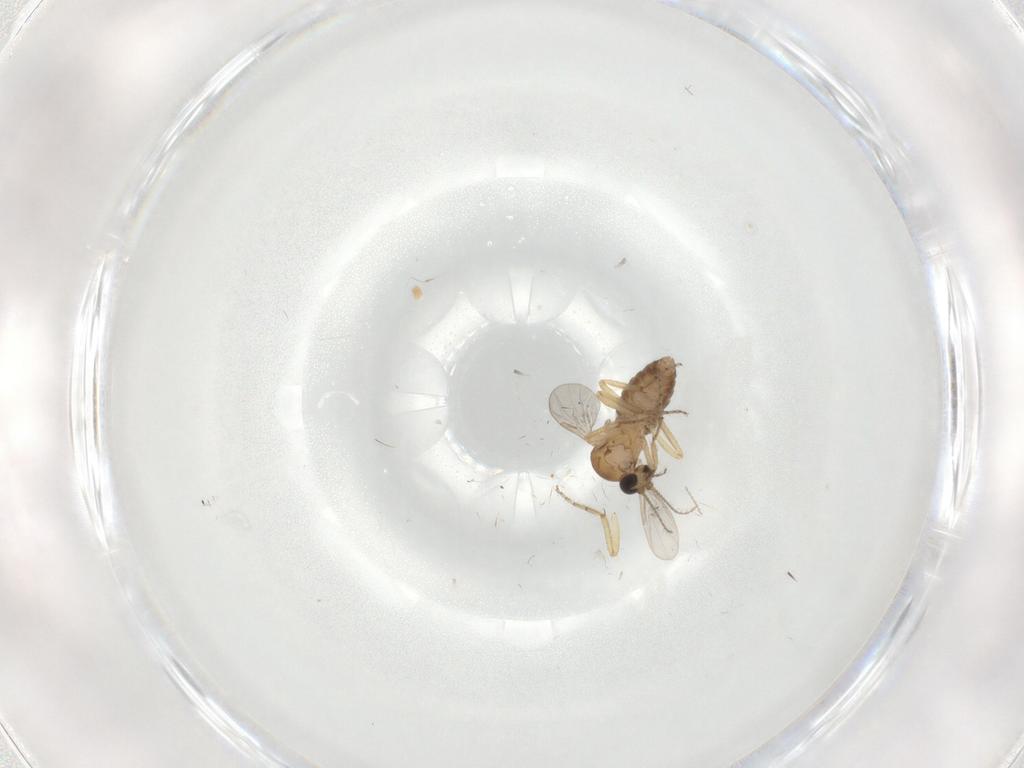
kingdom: Animalia
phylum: Arthropoda
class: Insecta
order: Diptera
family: Ceratopogonidae
